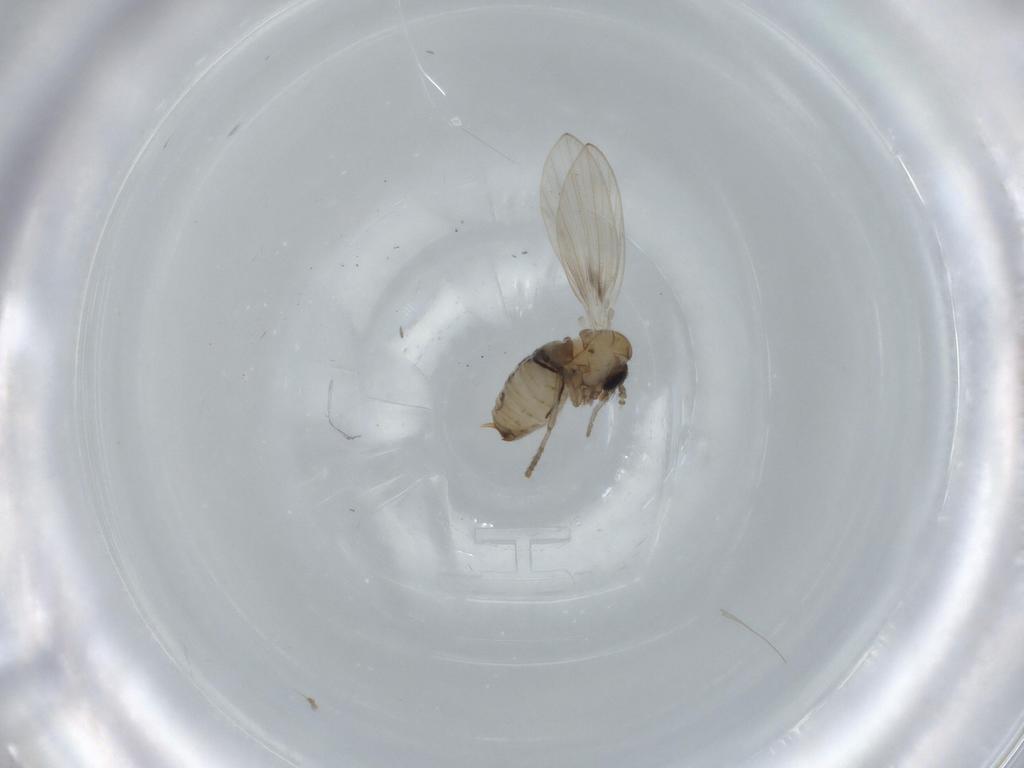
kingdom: Animalia
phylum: Arthropoda
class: Insecta
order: Diptera
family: Psychodidae
